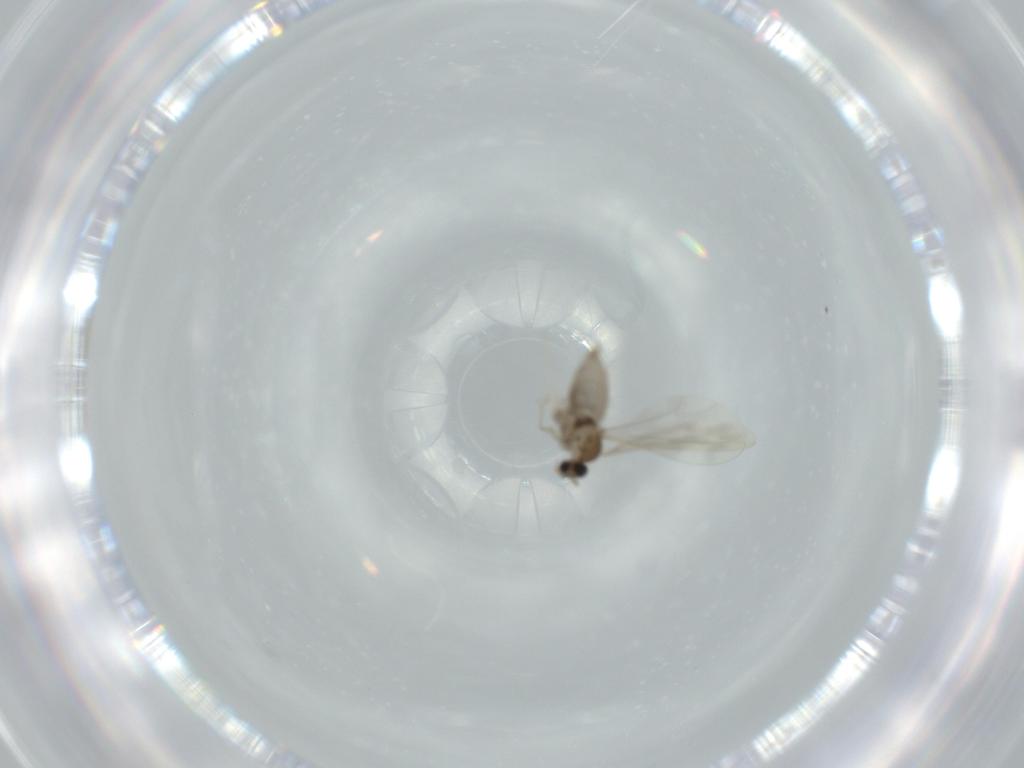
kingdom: Animalia
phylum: Arthropoda
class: Insecta
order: Diptera
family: Cecidomyiidae
